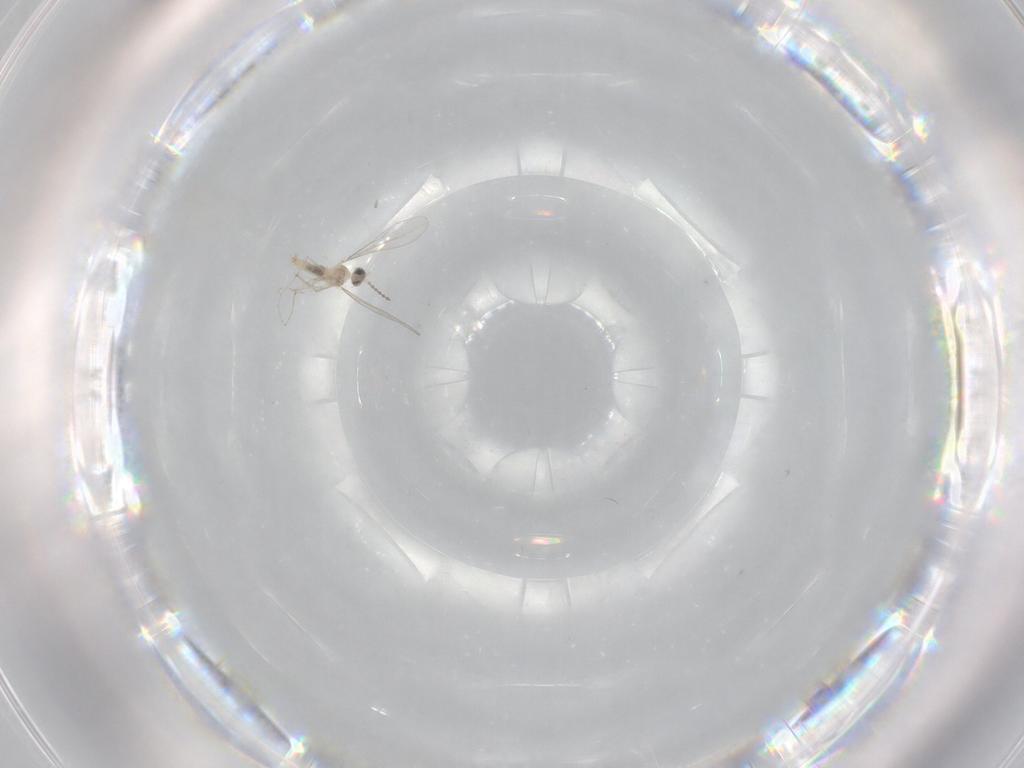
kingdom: Animalia
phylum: Arthropoda
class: Insecta
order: Diptera
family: Cecidomyiidae
